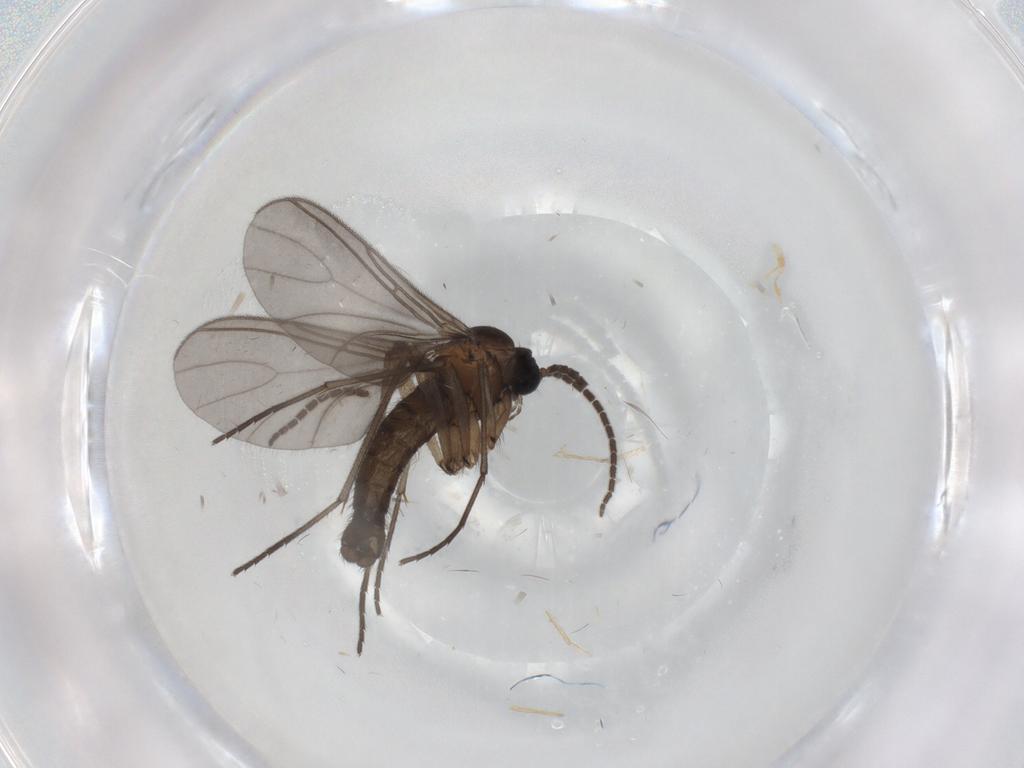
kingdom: Animalia
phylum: Arthropoda
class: Insecta
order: Diptera
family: Sciaridae
